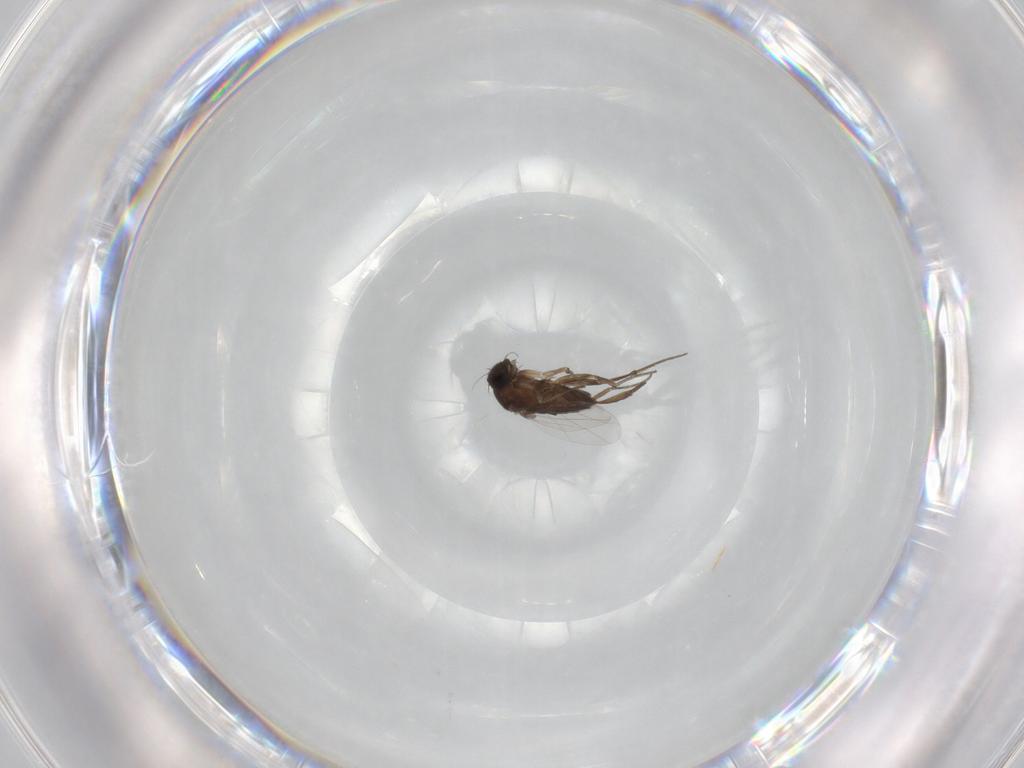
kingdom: Animalia
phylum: Arthropoda
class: Insecta
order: Diptera
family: Phoridae
